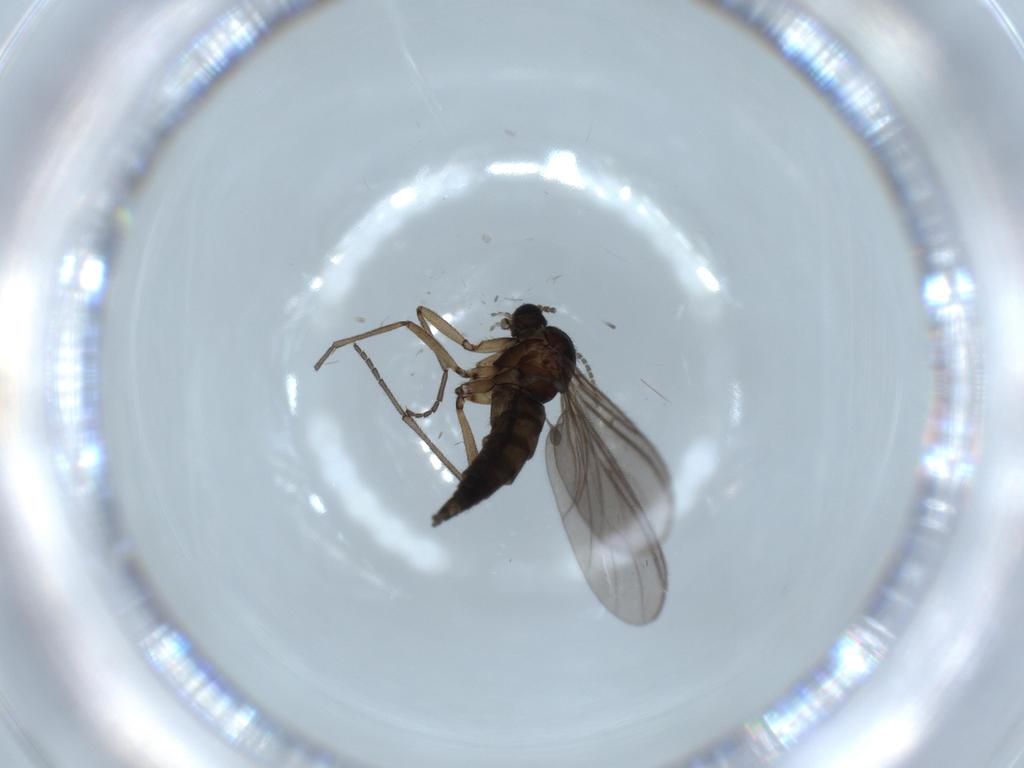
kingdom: Animalia
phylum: Arthropoda
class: Insecta
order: Diptera
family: Sciaridae
